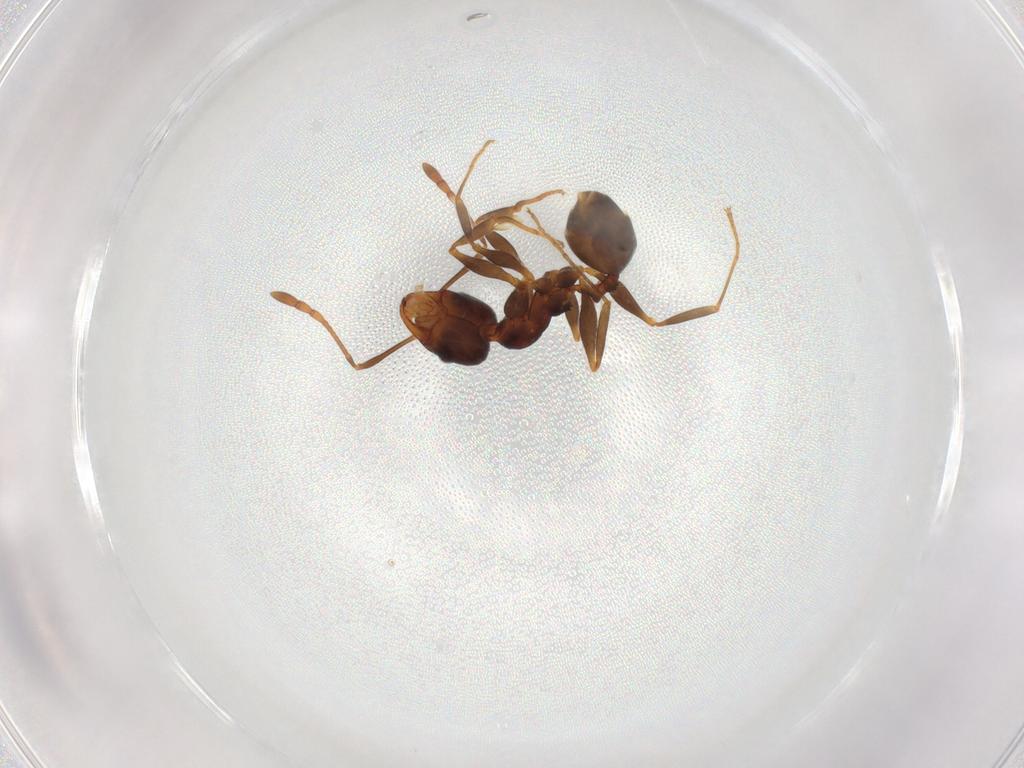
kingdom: Animalia
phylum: Arthropoda
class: Insecta
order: Hymenoptera
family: Formicidae
